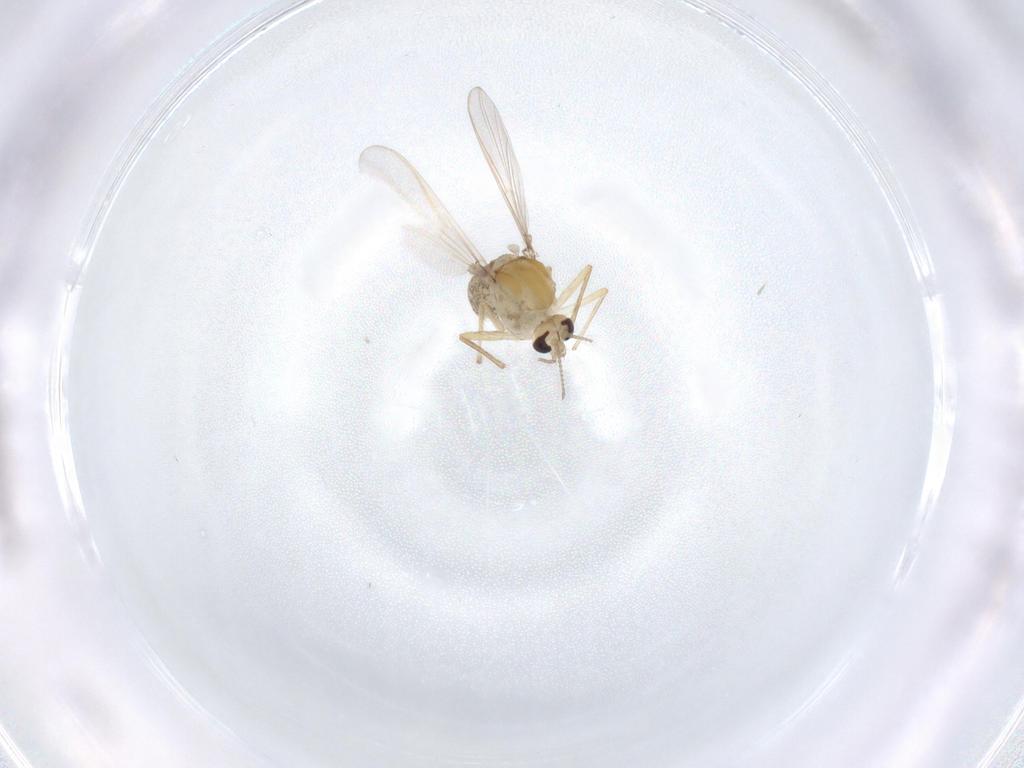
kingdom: Animalia
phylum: Arthropoda
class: Insecta
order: Diptera
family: Chironomidae
